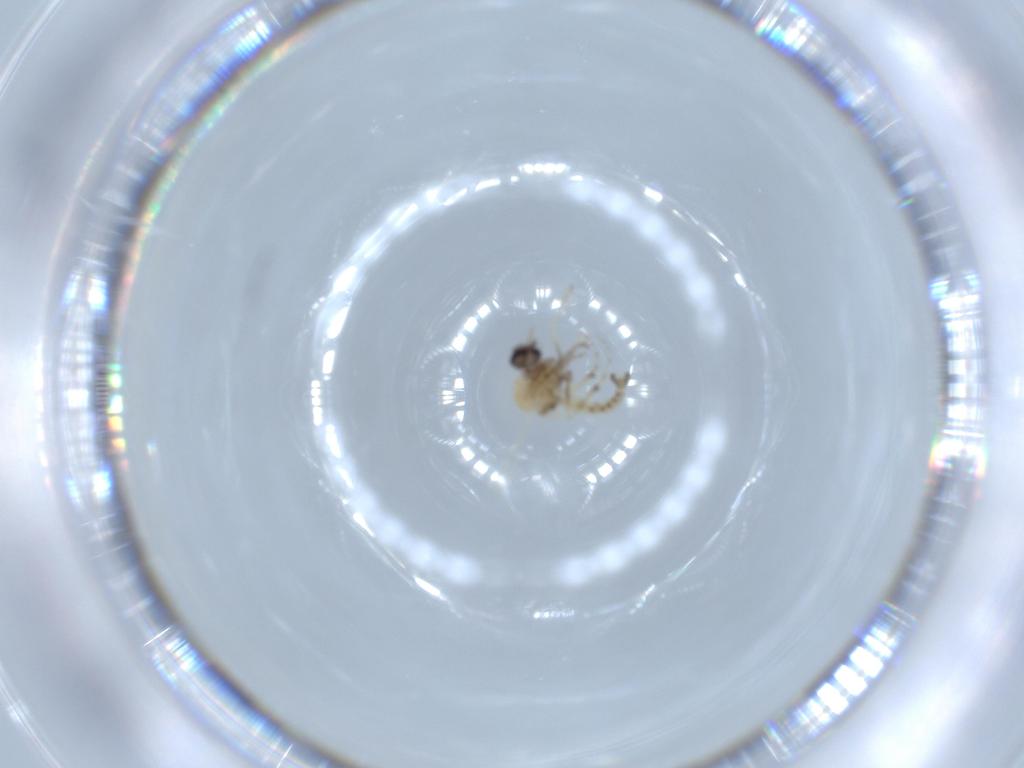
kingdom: Animalia
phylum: Arthropoda
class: Insecta
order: Diptera
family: Ceratopogonidae
